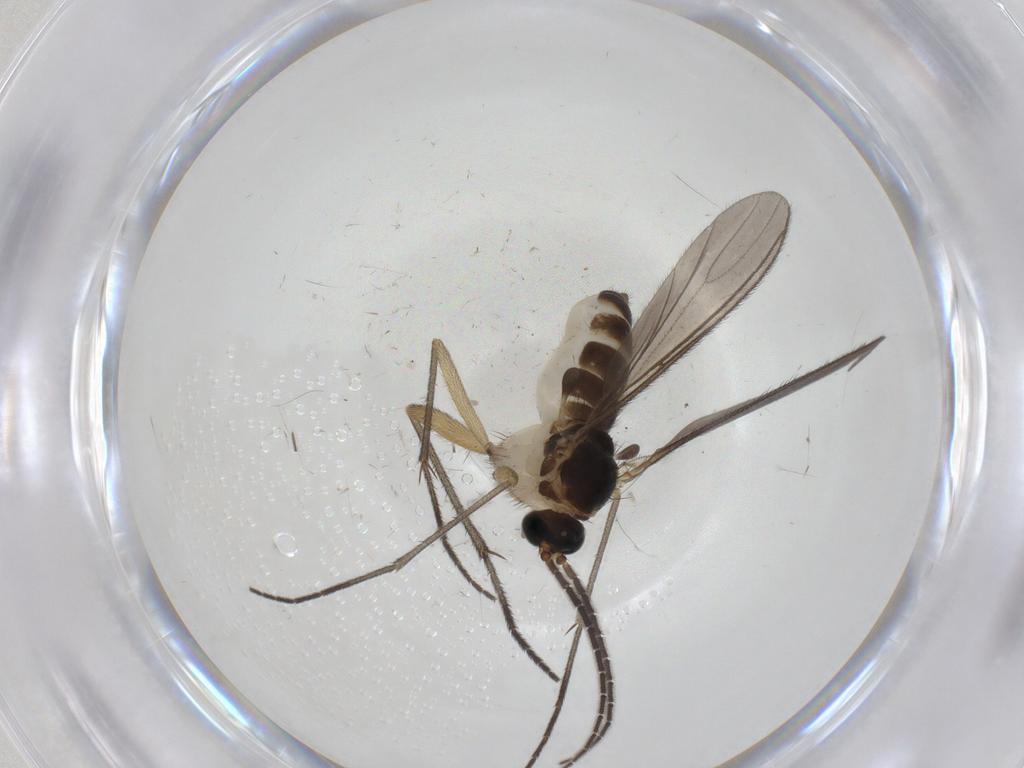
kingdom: Animalia
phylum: Arthropoda
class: Insecta
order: Diptera
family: Sciaridae
